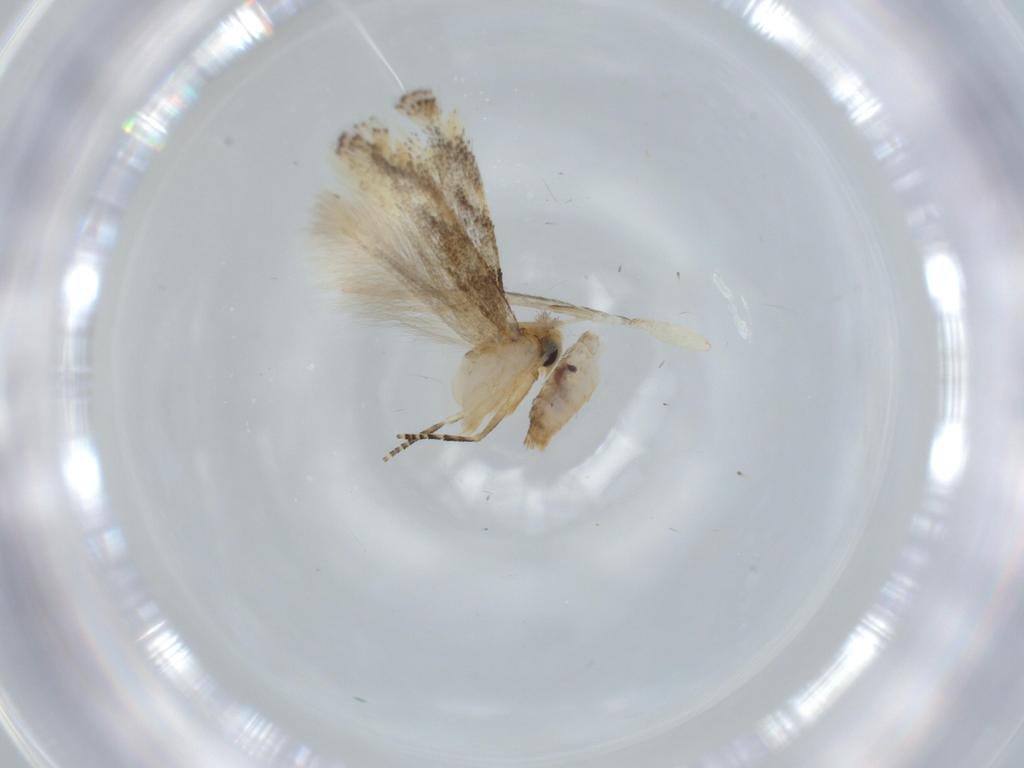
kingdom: Animalia
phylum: Arthropoda
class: Insecta
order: Lepidoptera
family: Bucculatricidae
